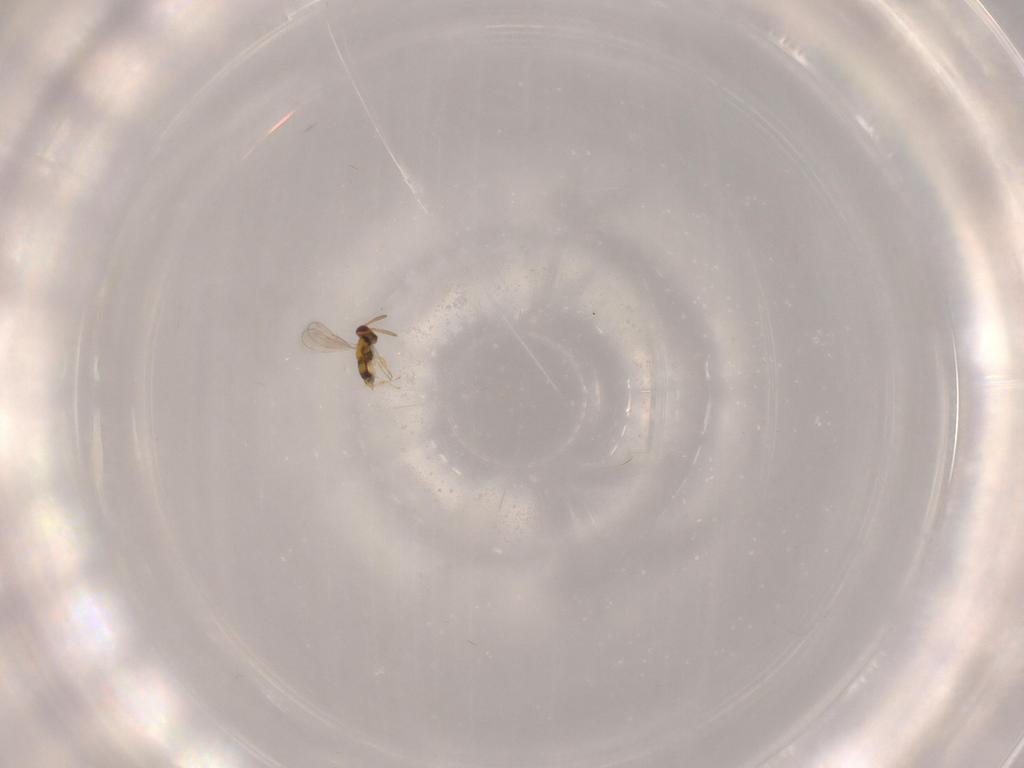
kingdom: Animalia
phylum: Arthropoda
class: Insecta
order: Hymenoptera
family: Aphelinidae
